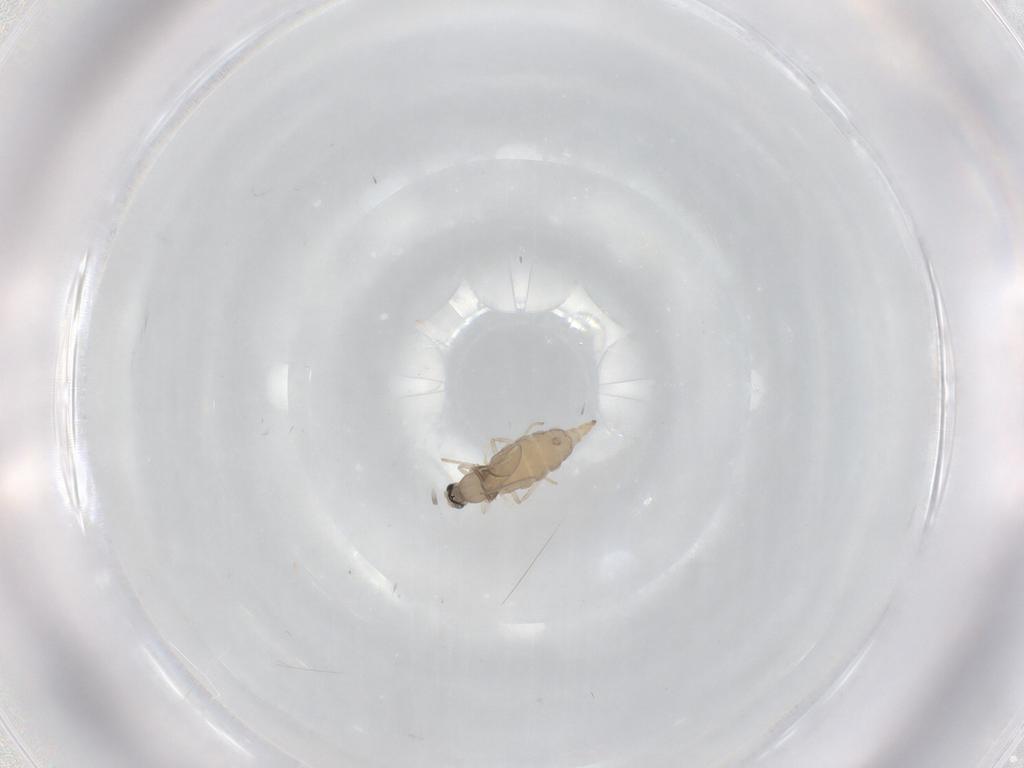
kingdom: Animalia
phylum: Arthropoda
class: Insecta
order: Diptera
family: Cecidomyiidae
